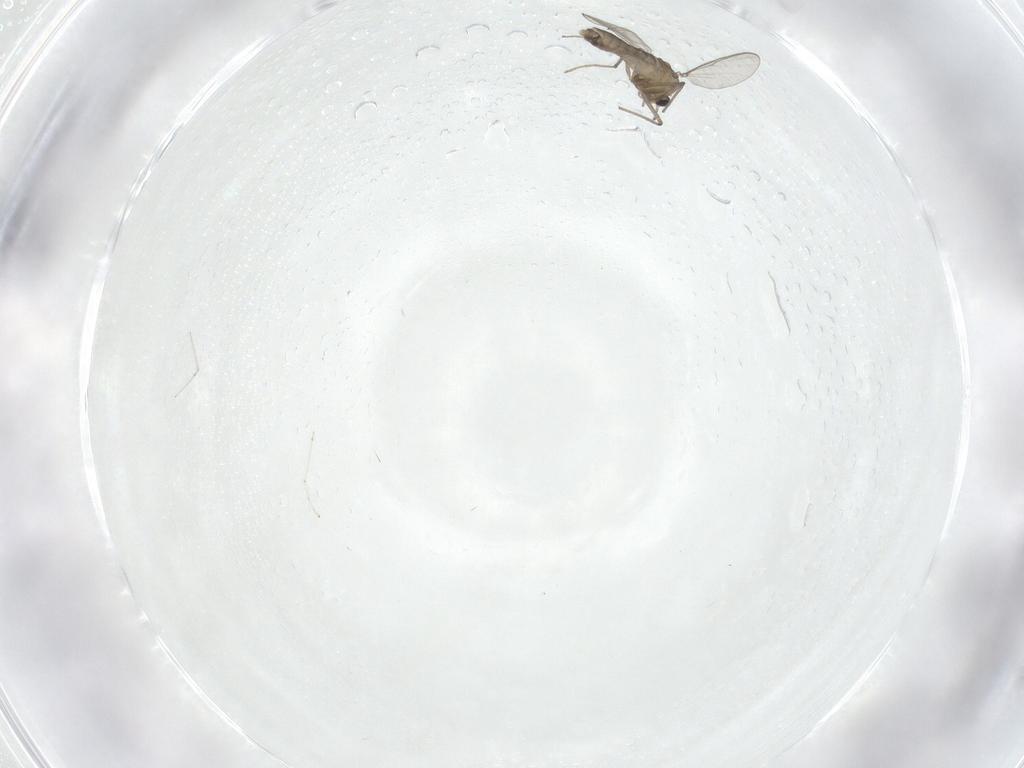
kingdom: Animalia
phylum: Arthropoda
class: Insecta
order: Diptera
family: Chironomidae
